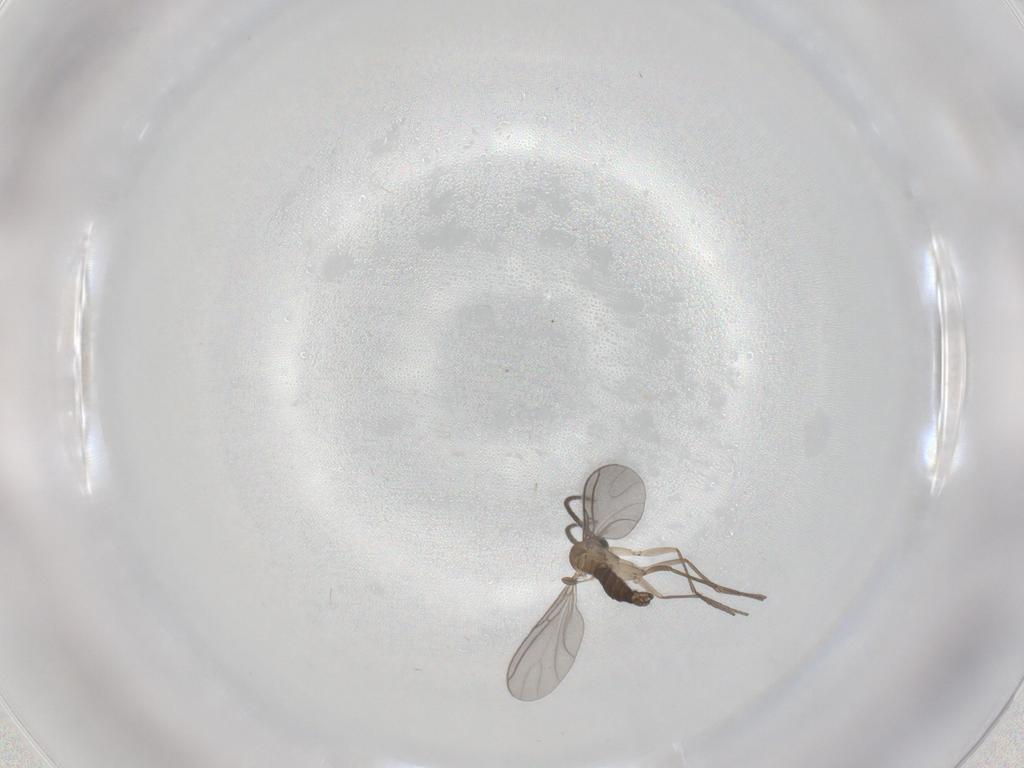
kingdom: Animalia
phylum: Arthropoda
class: Insecta
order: Diptera
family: Sciaridae
